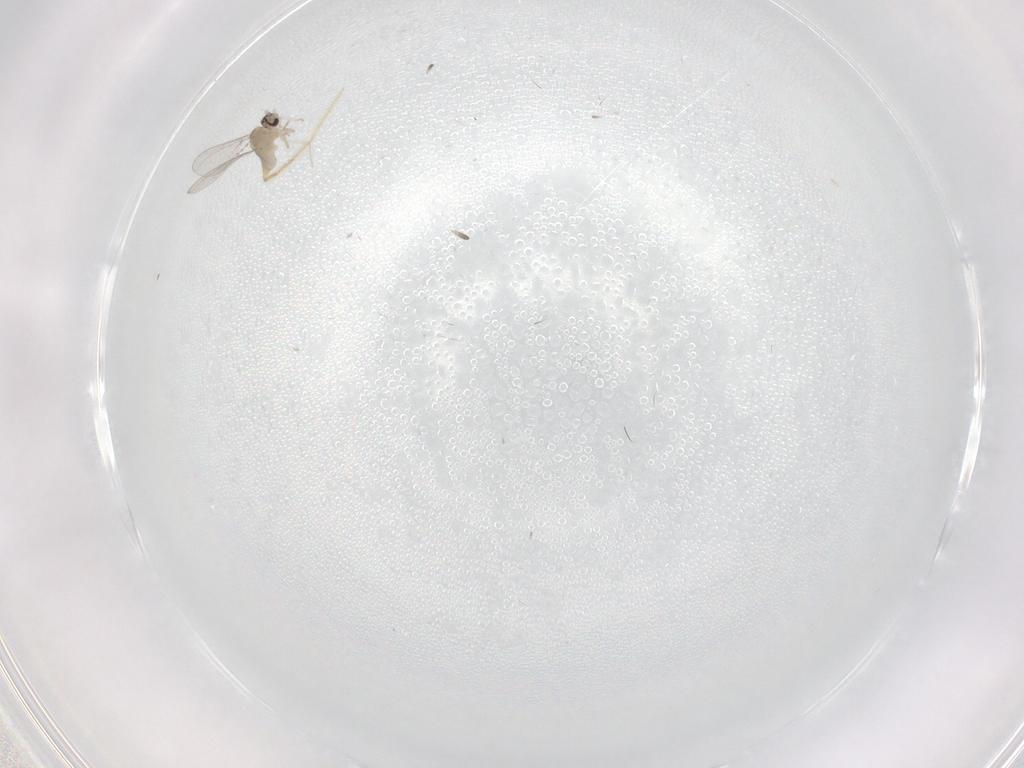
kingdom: Animalia
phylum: Arthropoda
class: Insecta
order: Diptera
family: Cecidomyiidae
